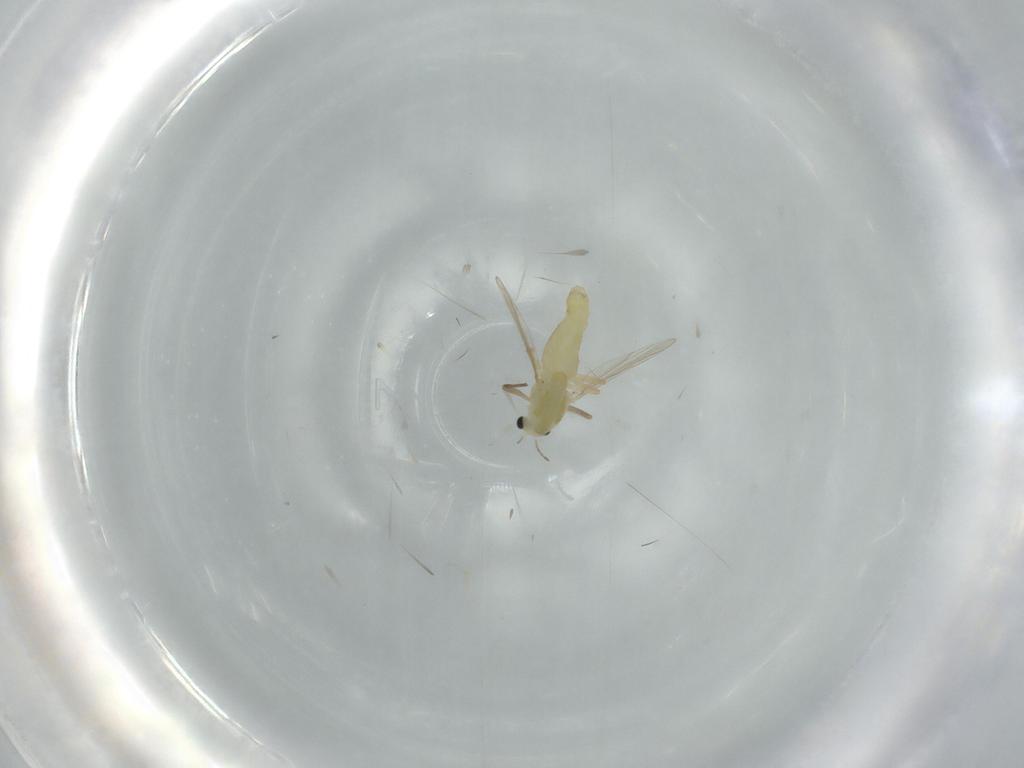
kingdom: Animalia
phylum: Arthropoda
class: Insecta
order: Diptera
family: Chironomidae
